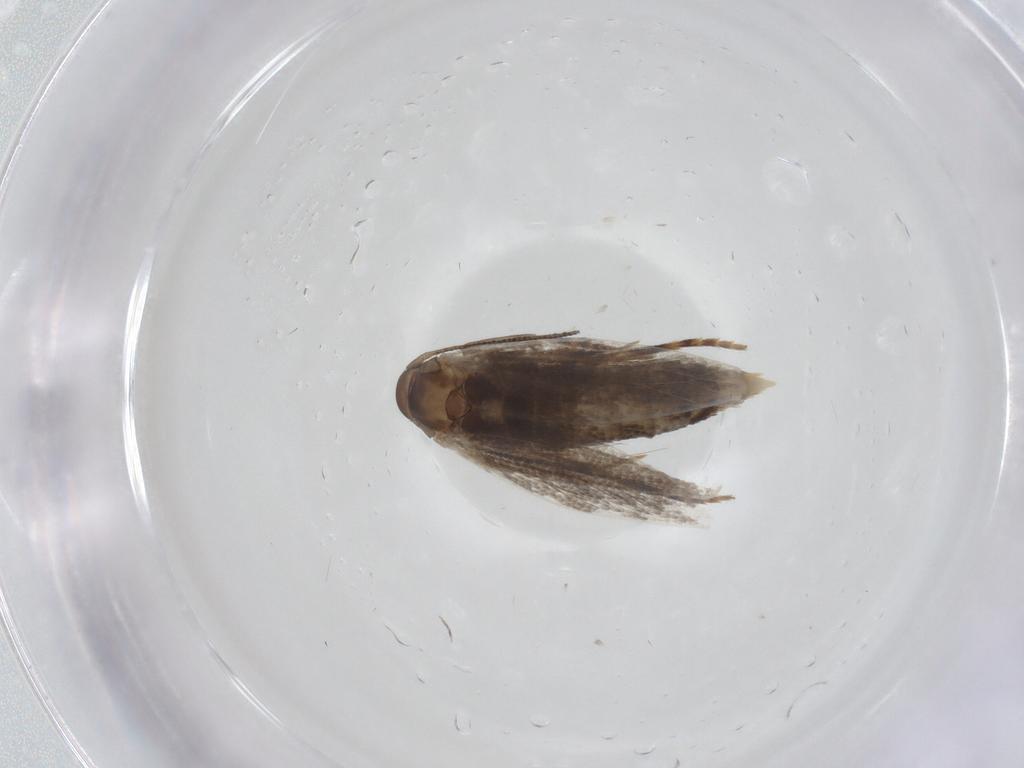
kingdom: Animalia
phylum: Arthropoda
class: Insecta
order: Lepidoptera
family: Elachistidae
